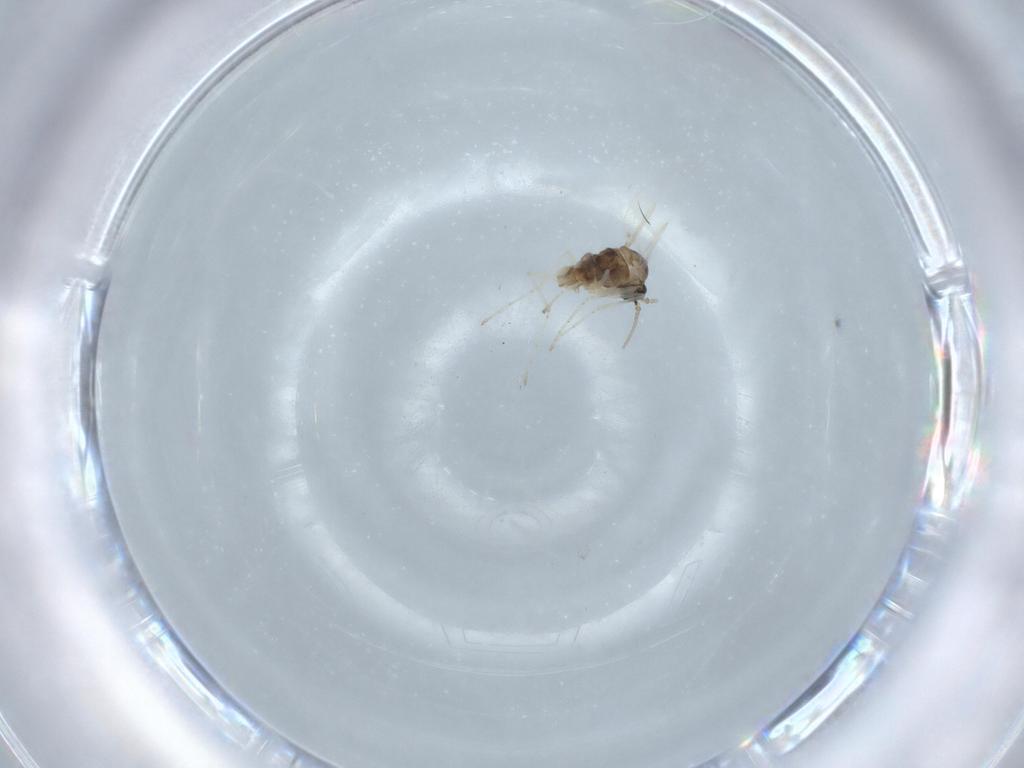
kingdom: Animalia
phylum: Arthropoda
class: Insecta
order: Diptera
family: Cecidomyiidae
